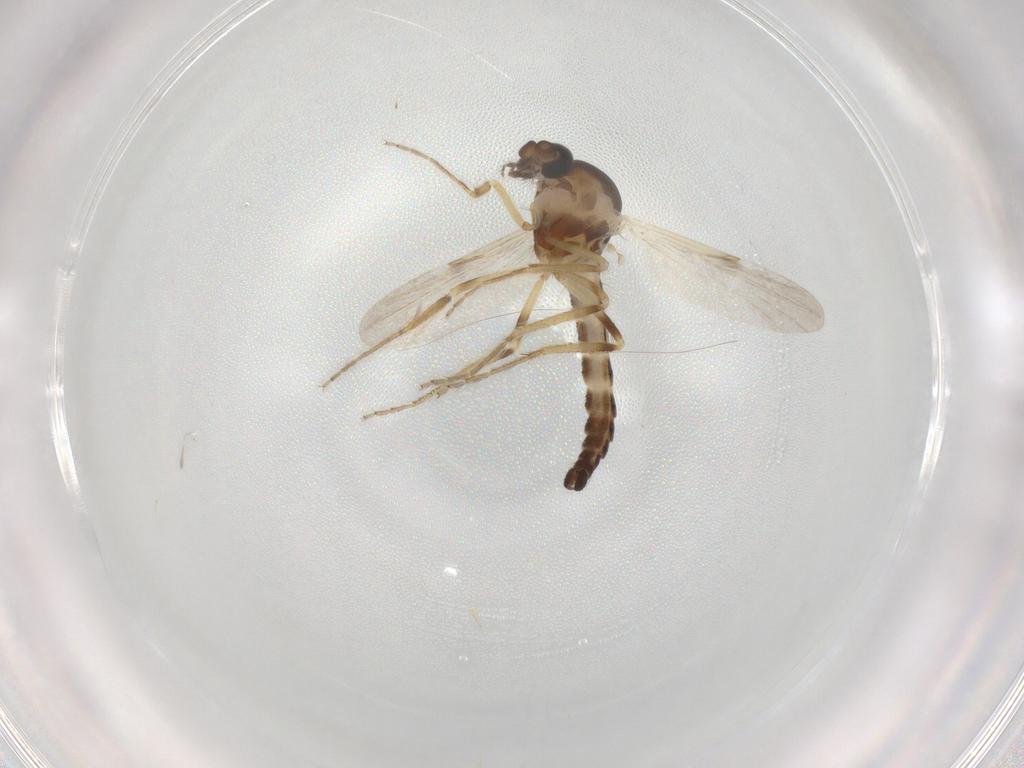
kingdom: Animalia
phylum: Arthropoda
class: Insecta
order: Diptera
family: Ceratopogonidae
